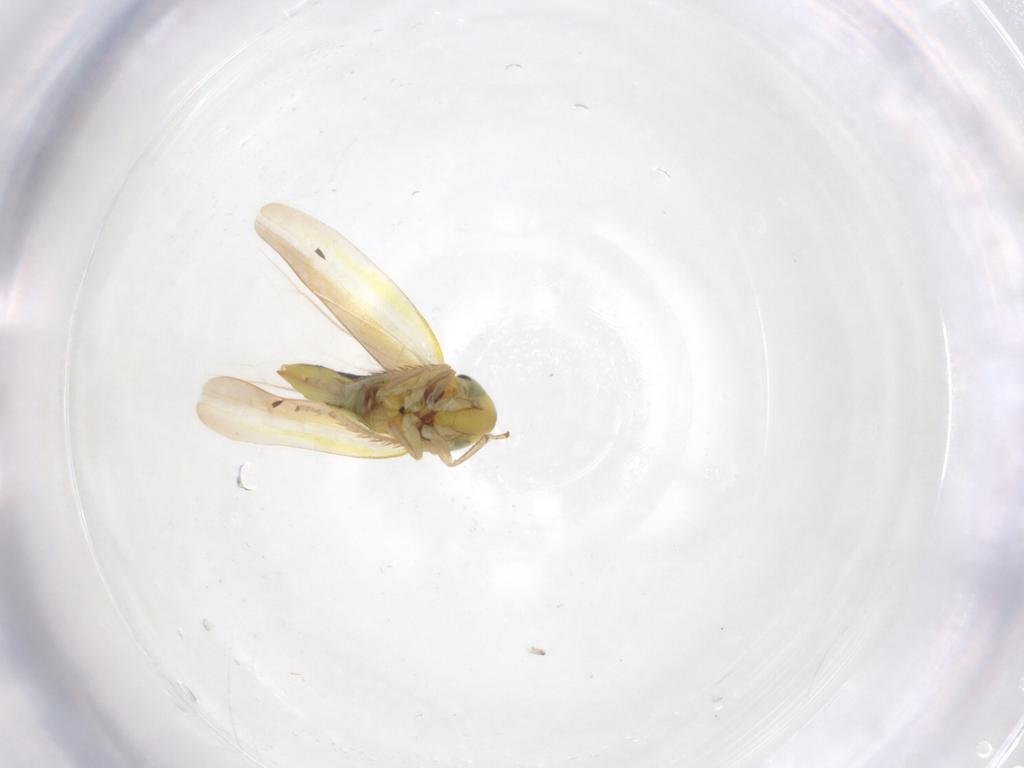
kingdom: Animalia
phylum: Arthropoda
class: Insecta
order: Hemiptera
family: Cicadellidae
